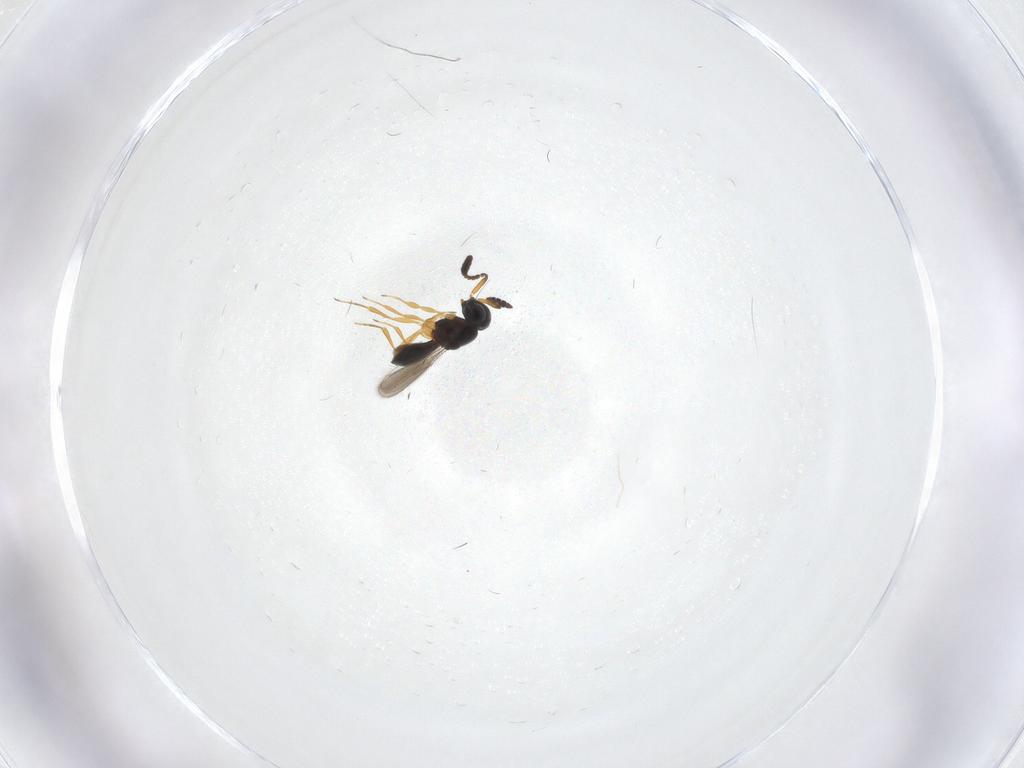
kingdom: Animalia
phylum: Arthropoda
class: Insecta
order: Hymenoptera
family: Scelionidae
